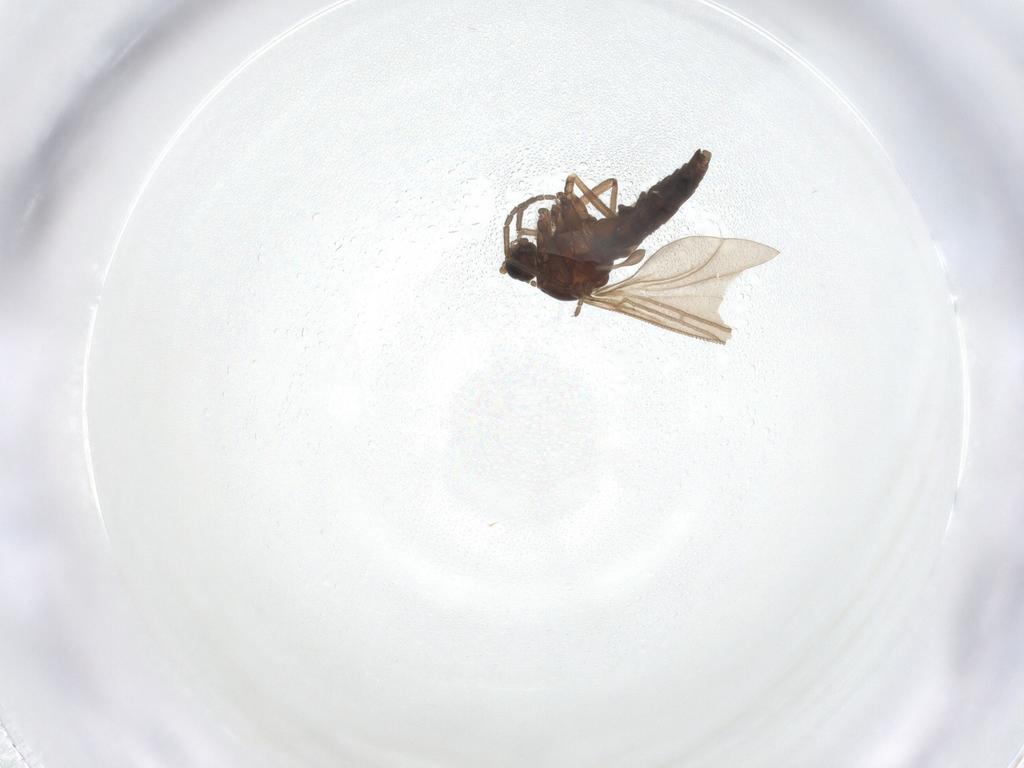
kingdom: Animalia
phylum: Arthropoda
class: Insecta
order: Diptera
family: Sciaridae
